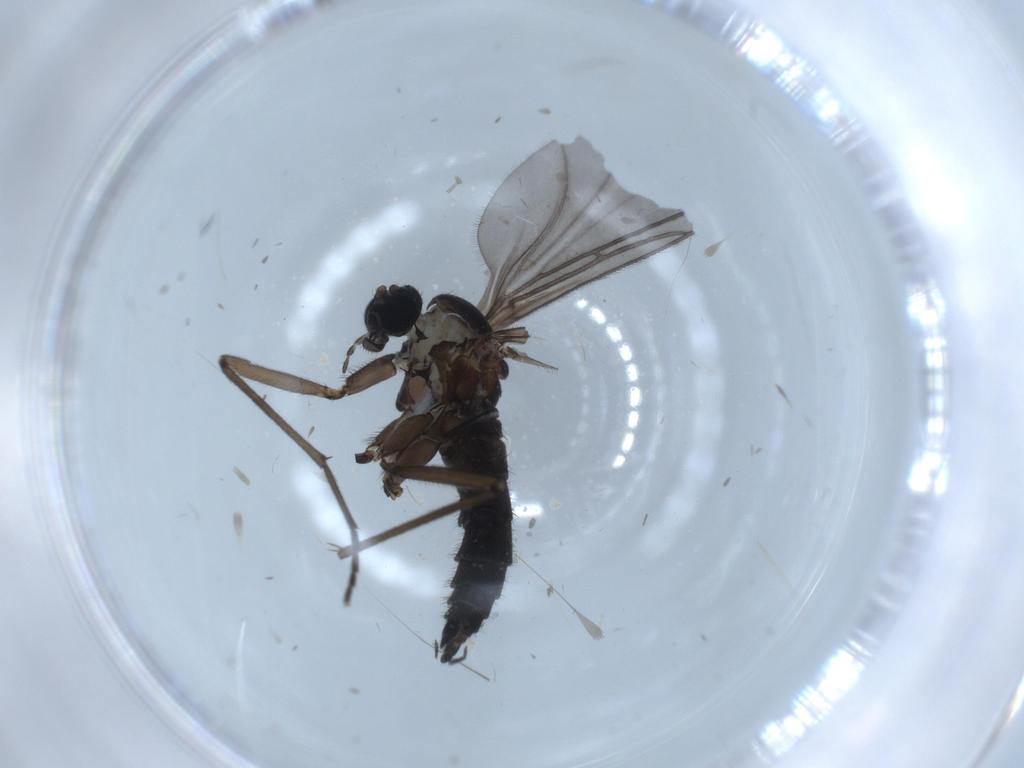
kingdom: Animalia
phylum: Arthropoda
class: Insecta
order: Diptera
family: Sciaridae
